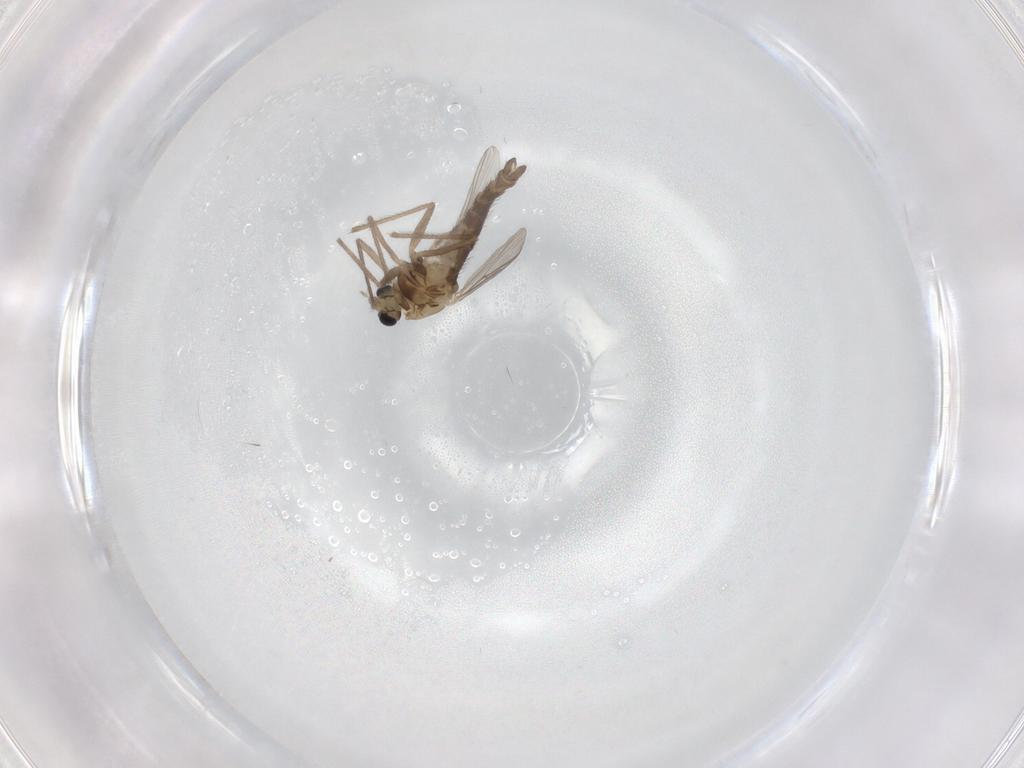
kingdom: Animalia
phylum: Arthropoda
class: Insecta
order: Diptera
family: Chironomidae
